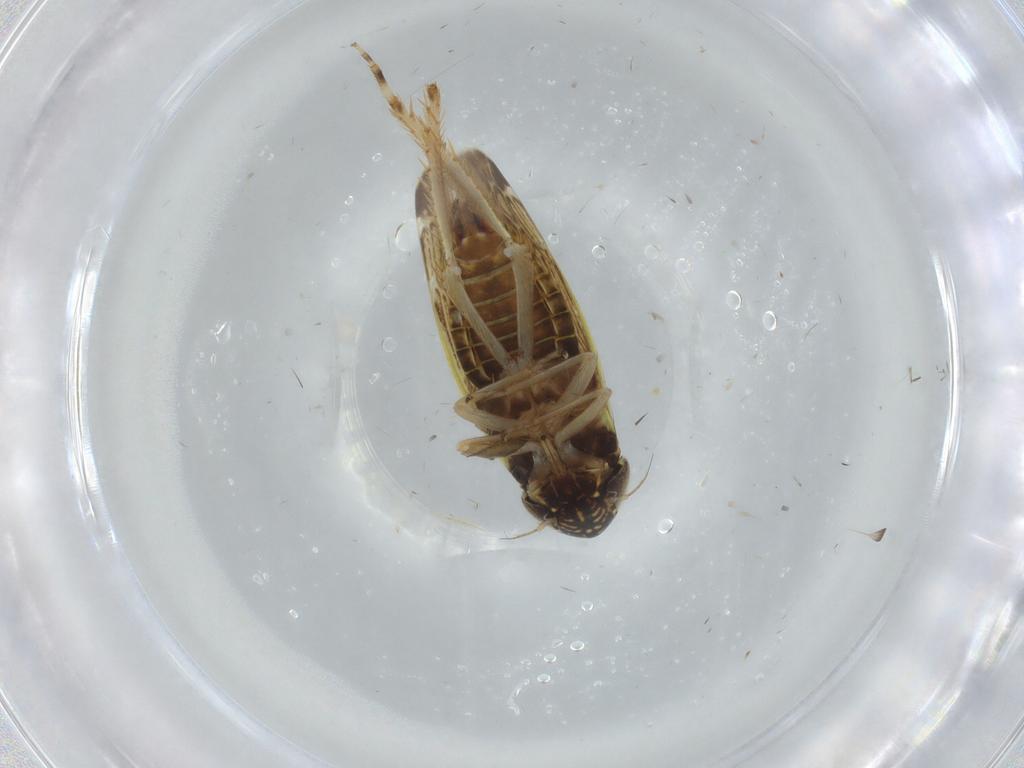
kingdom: Animalia
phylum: Arthropoda
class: Insecta
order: Hemiptera
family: Cicadellidae
